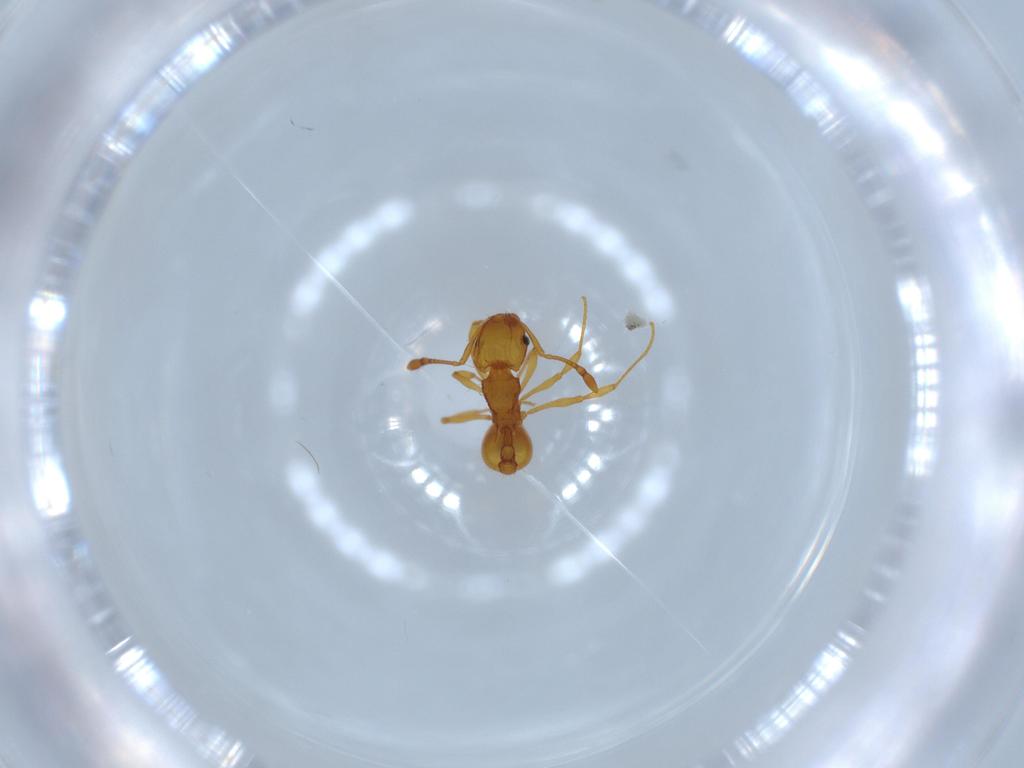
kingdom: Animalia
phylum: Arthropoda
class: Insecta
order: Hymenoptera
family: Formicidae
